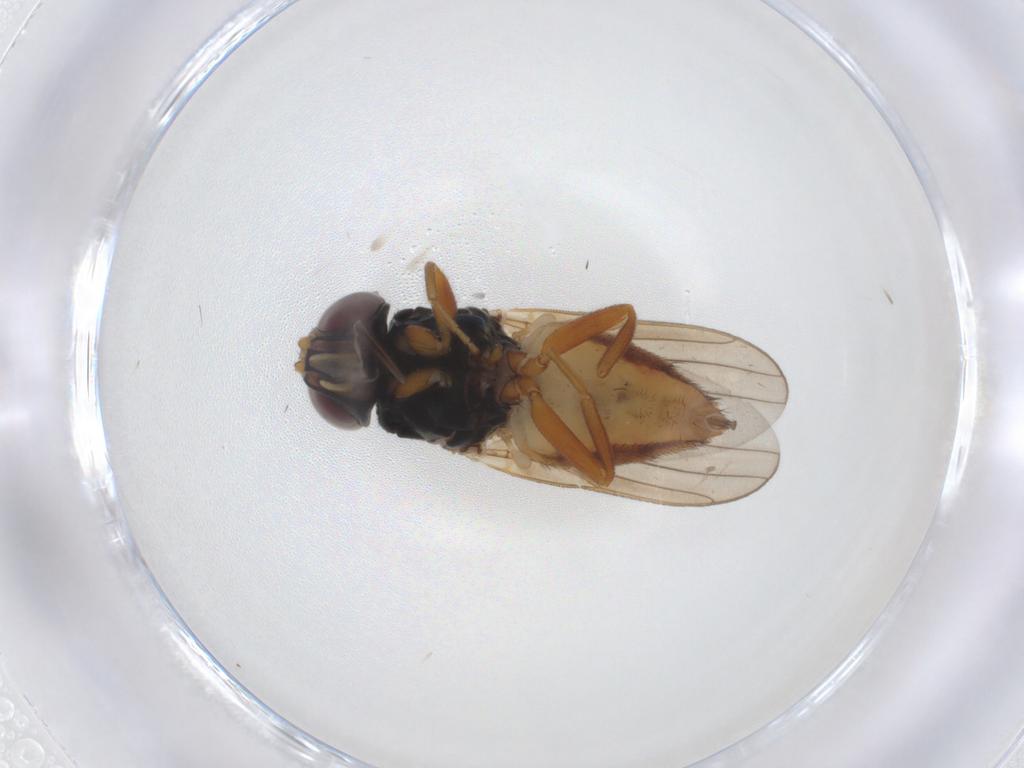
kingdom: Animalia
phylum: Arthropoda
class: Insecta
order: Diptera
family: Chloropidae
